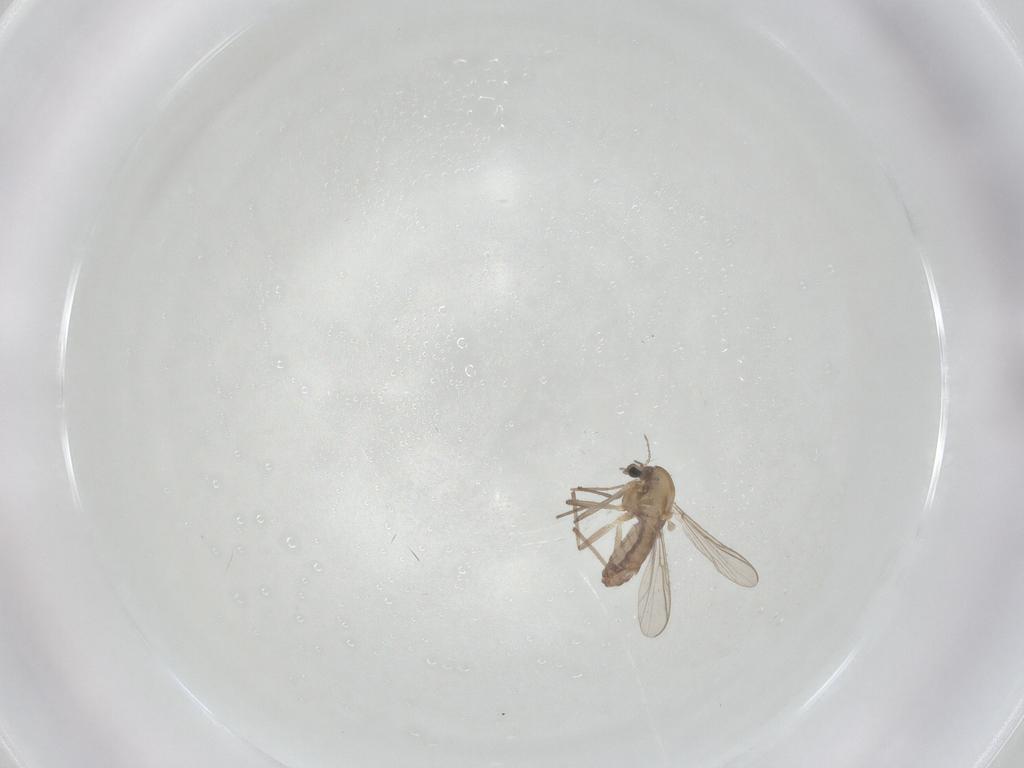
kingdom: Animalia
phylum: Arthropoda
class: Insecta
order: Diptera
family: Chironomidae
